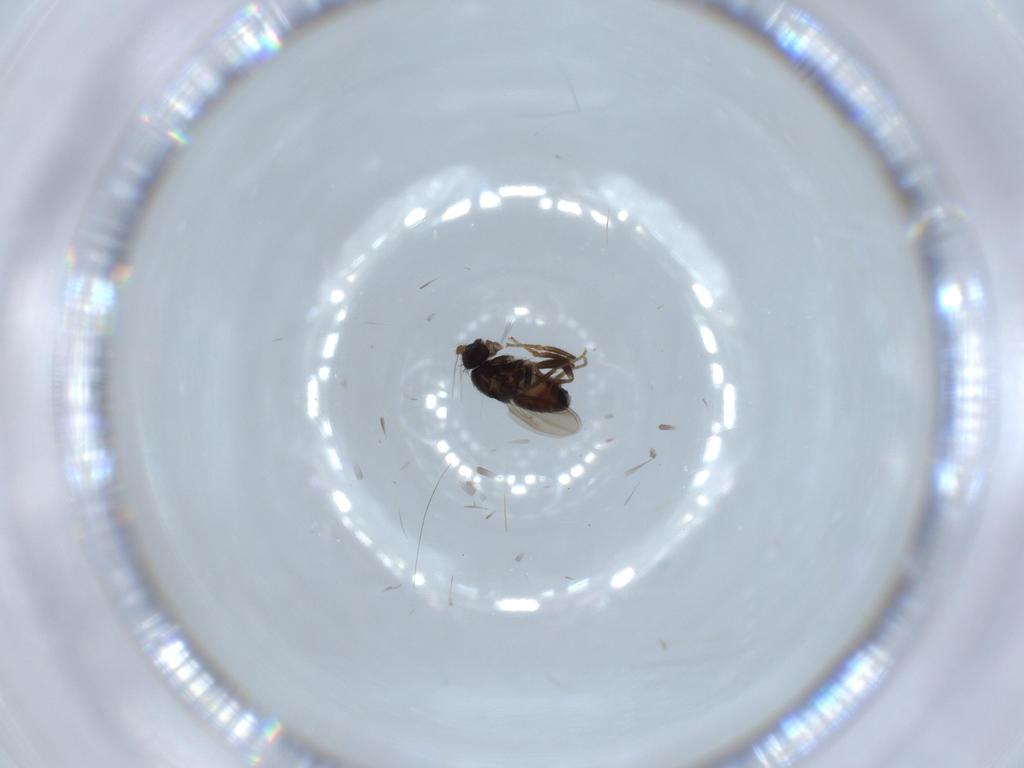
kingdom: Animalia
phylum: Arthropoda
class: Insecta
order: Diptera
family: Sphaeroceridae
